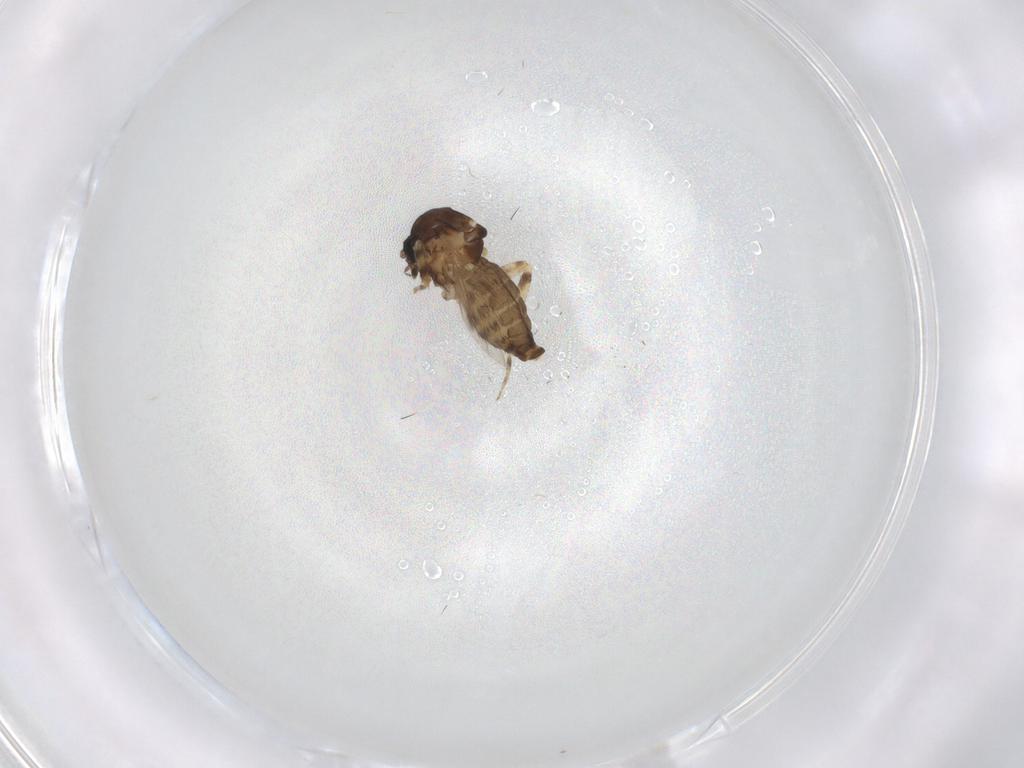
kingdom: Animalia
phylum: Arthropoda
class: Insecta
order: Diptera
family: Ceratopogonidae
